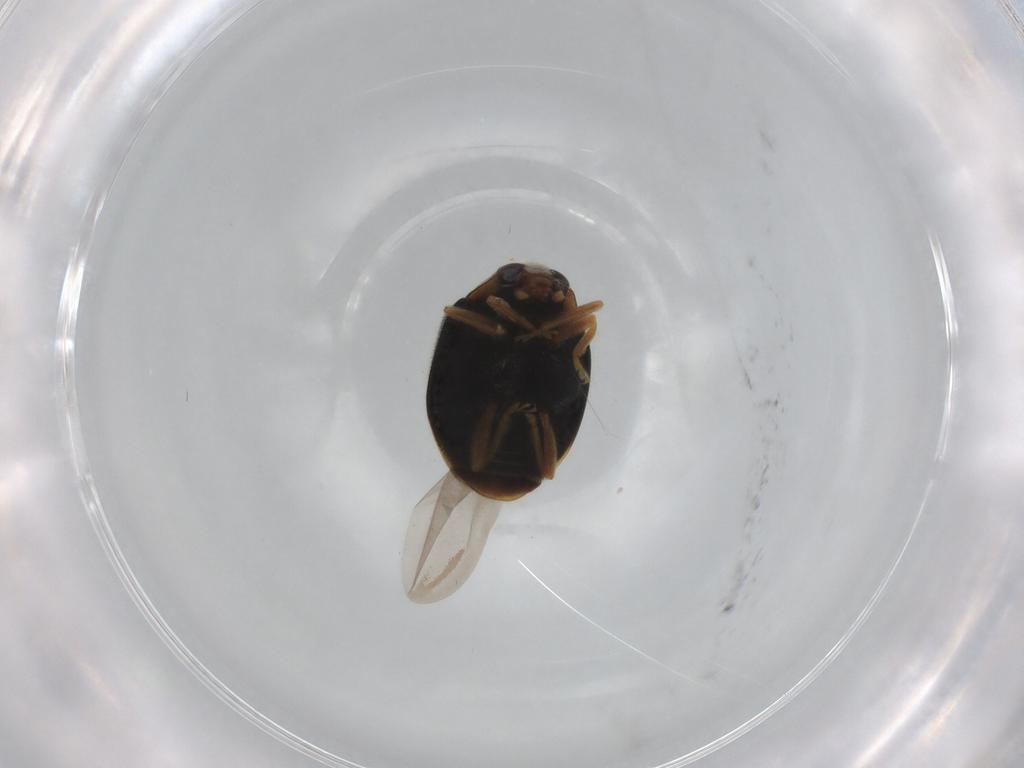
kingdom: Animalia
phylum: Arthropoda
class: Insecta
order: Coleoptera
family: Coccinellidae
